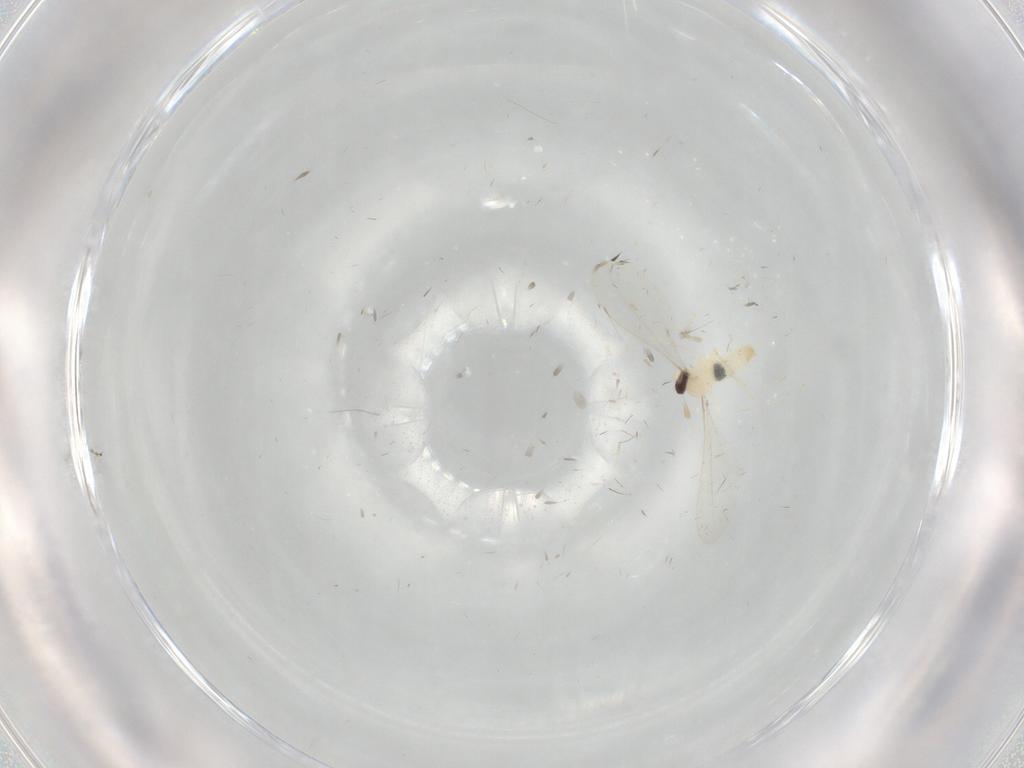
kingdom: Animalia
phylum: Arthropoda
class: Insecta
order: Diptera
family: Cecidomyiidae
